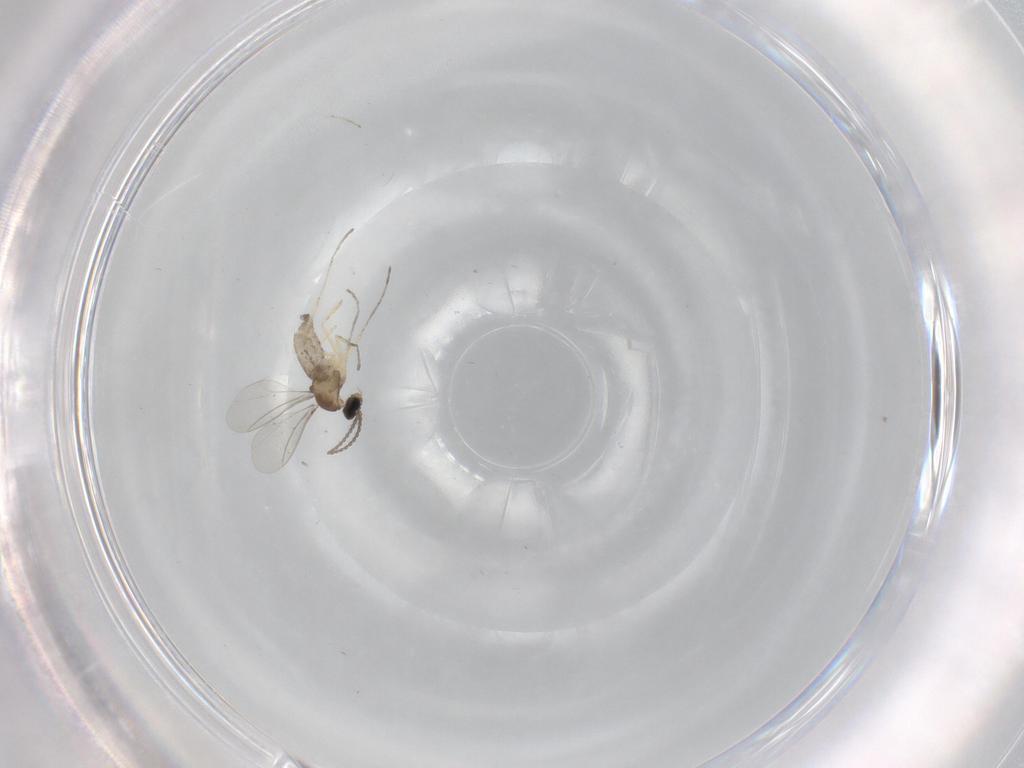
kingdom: Animalia
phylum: Arthropoda
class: Insecta
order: Diptera
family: Cecidomyiidae
